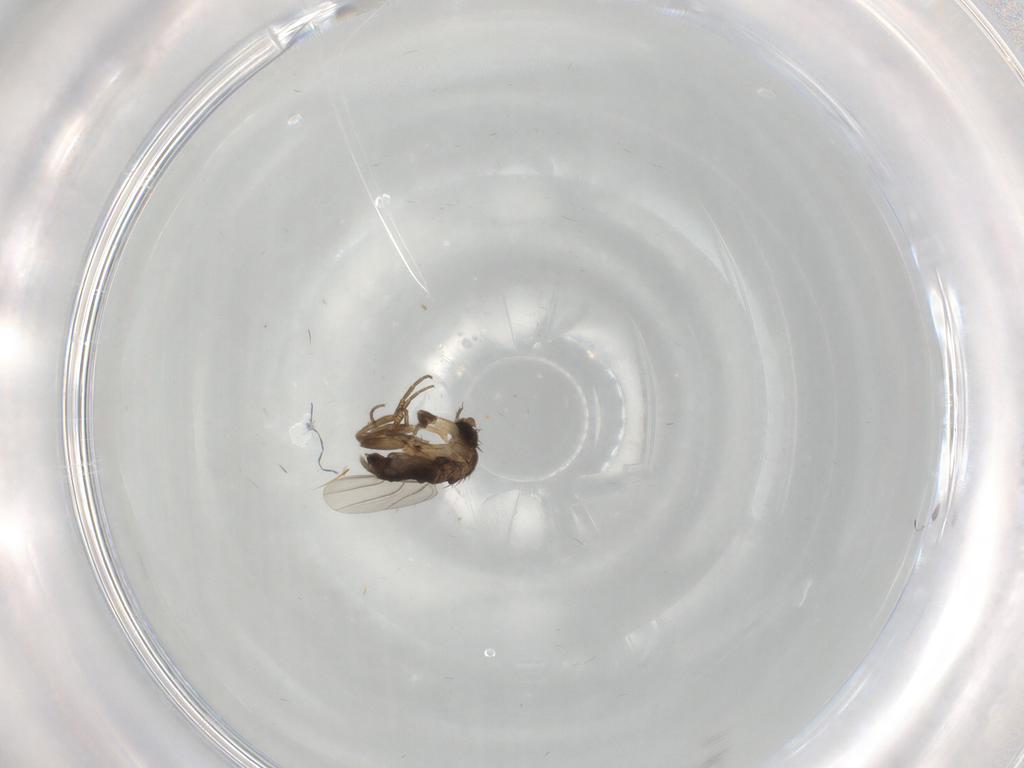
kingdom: Animalia
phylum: Arthropoda
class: Insecta
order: Diptera
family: Phoridae
